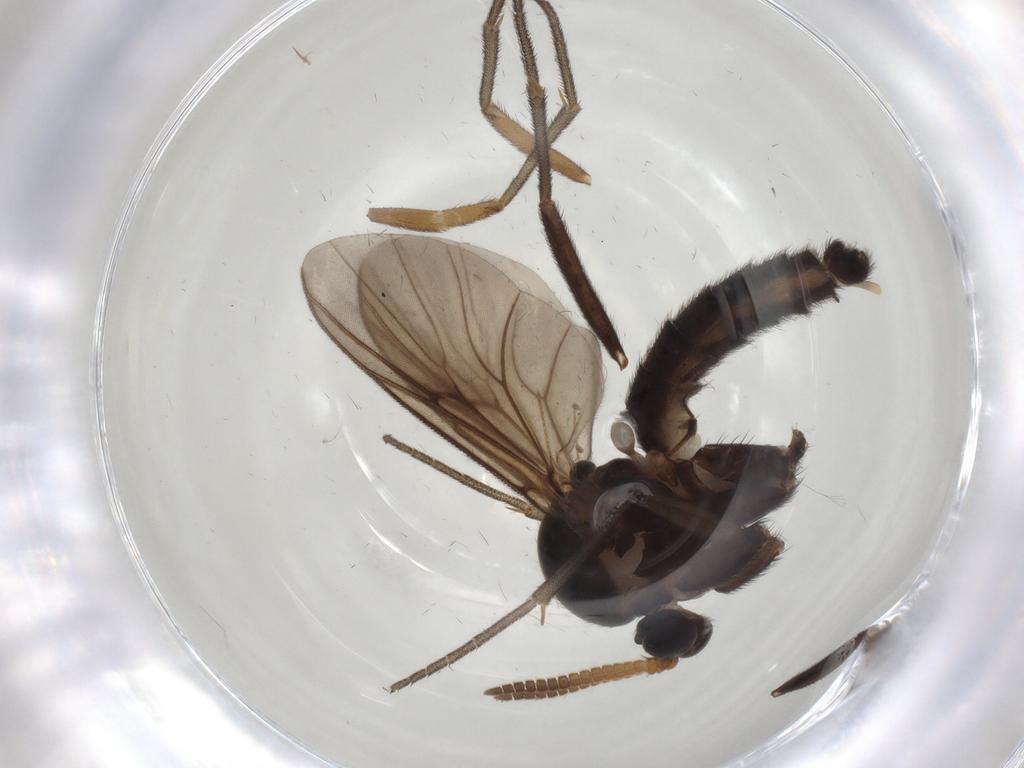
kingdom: Animalia
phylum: Arthropoda
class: Insecta
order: Diptera
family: Mycetophilidae
